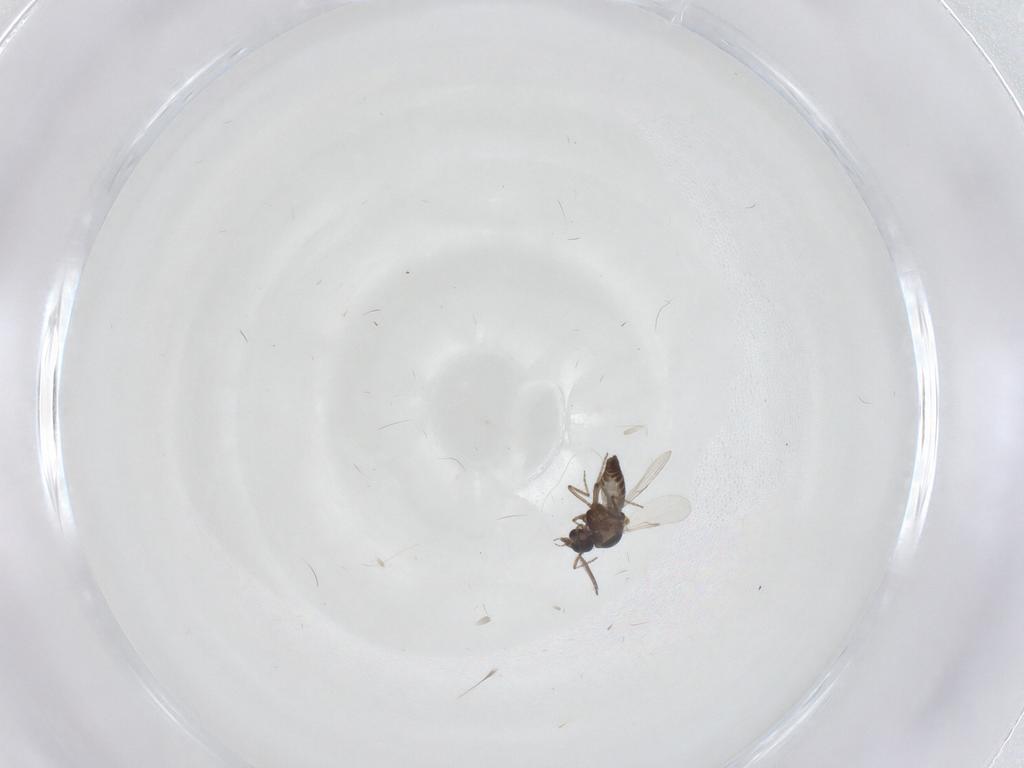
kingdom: Animalia
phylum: Arthropoda
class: Insecta
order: Diptera
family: Ceratopogonidae
